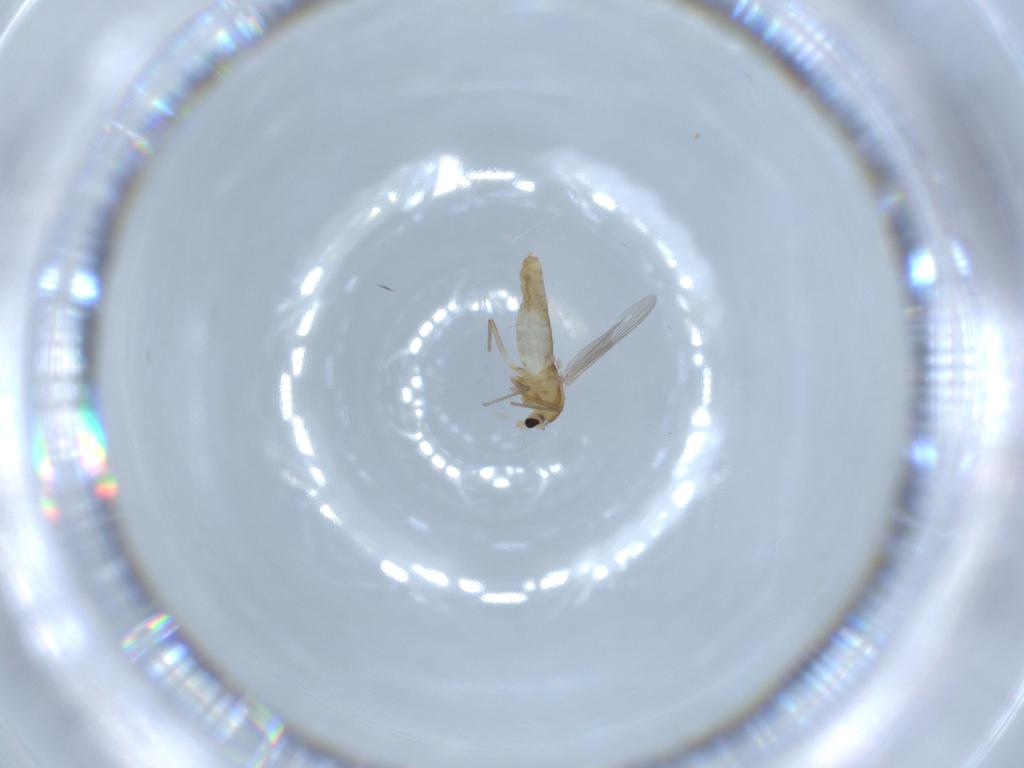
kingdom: Animalia
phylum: Arthropoda
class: Insecta
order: Diptera
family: Chironomidae
